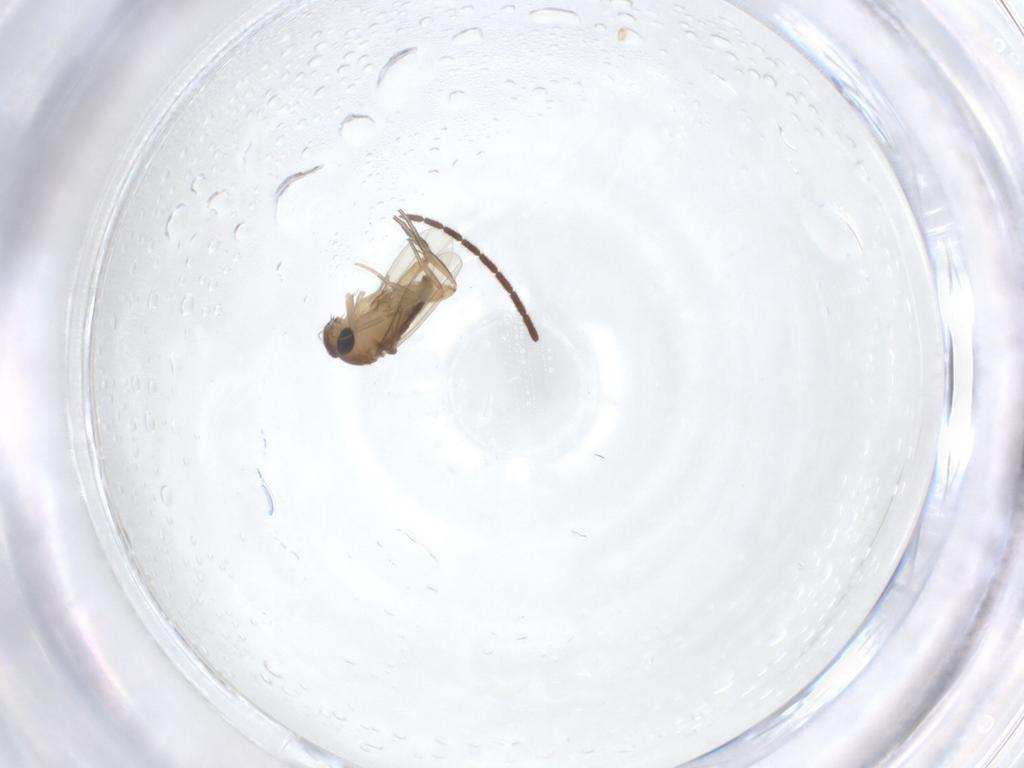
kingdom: Animalia
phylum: Arthropoda
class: Insecta
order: Diptera
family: Phoridae
